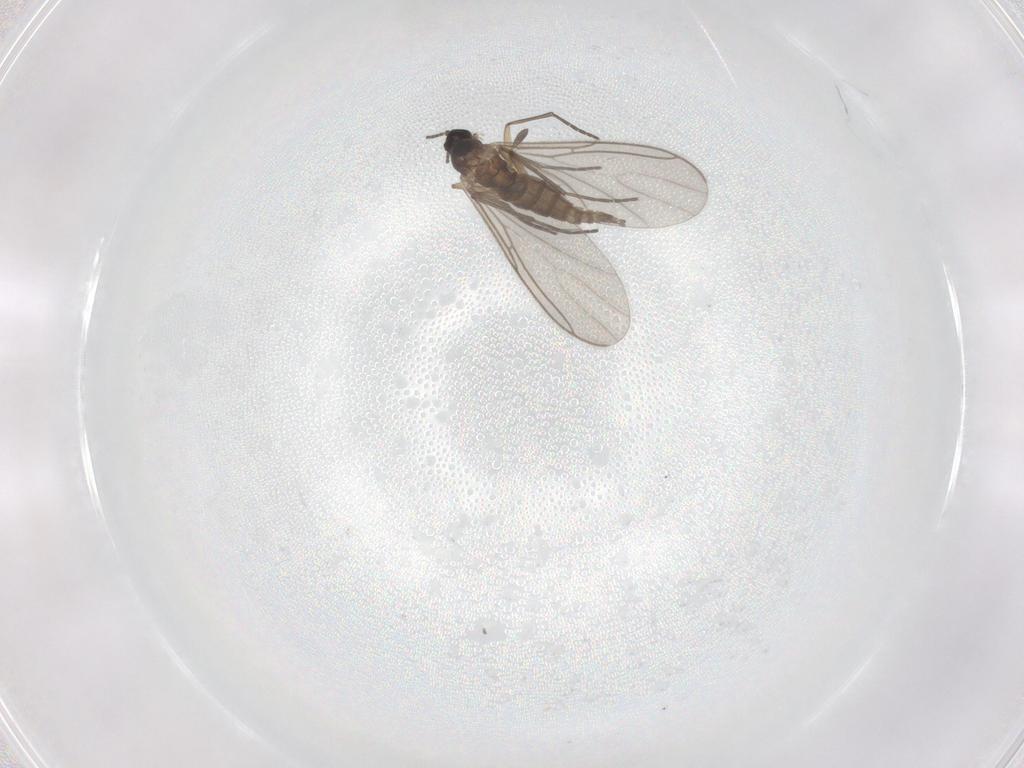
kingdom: Animalia
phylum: Arthropoda
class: Insecta
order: Diptera
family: Sciaridae
